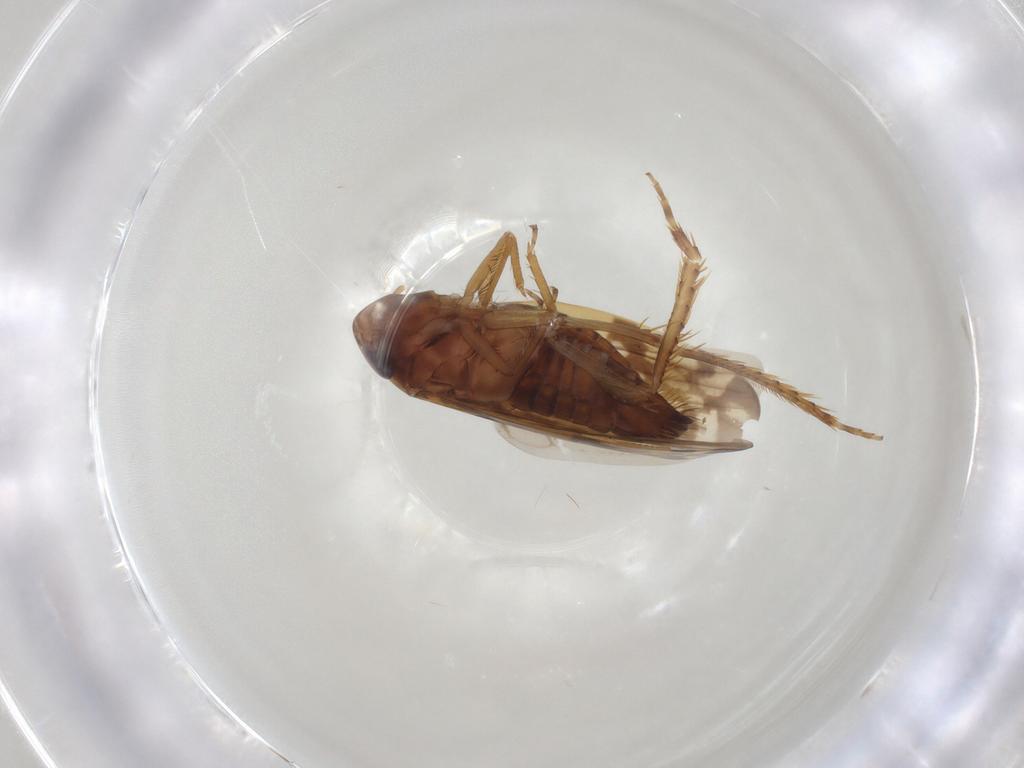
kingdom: Animalia
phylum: Arthropoda
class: Insecta
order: Hemiptera
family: Cicadellidae
